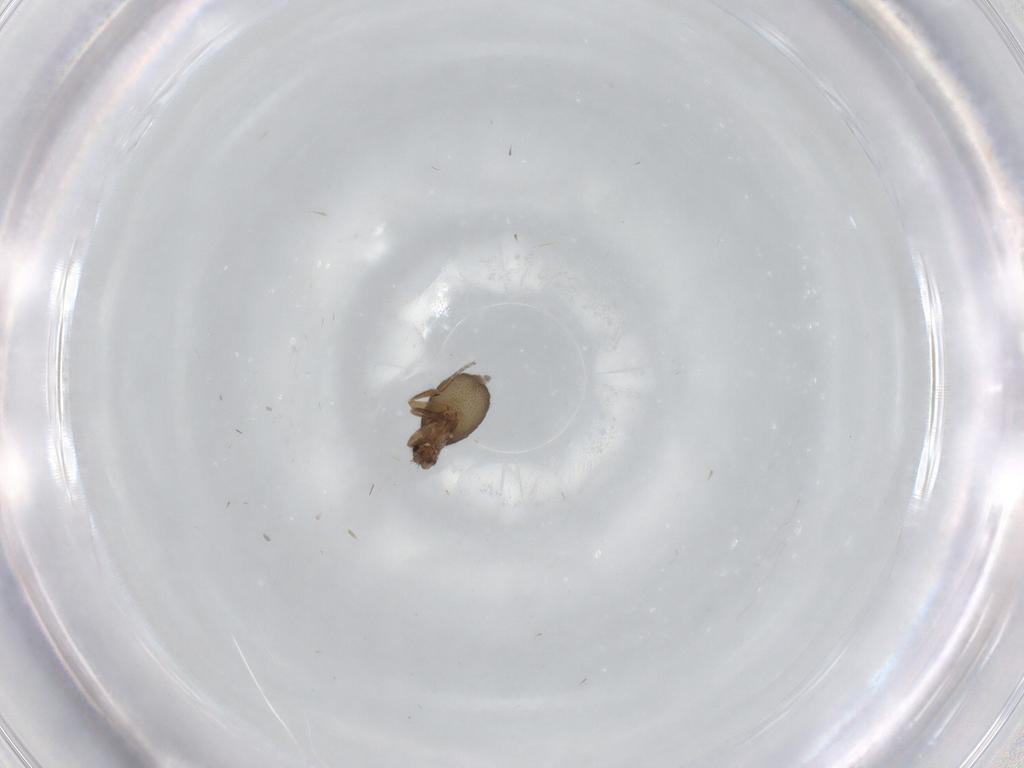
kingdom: Animalia
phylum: Arthropoda
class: Insecta
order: Diptera
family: Phoridae
